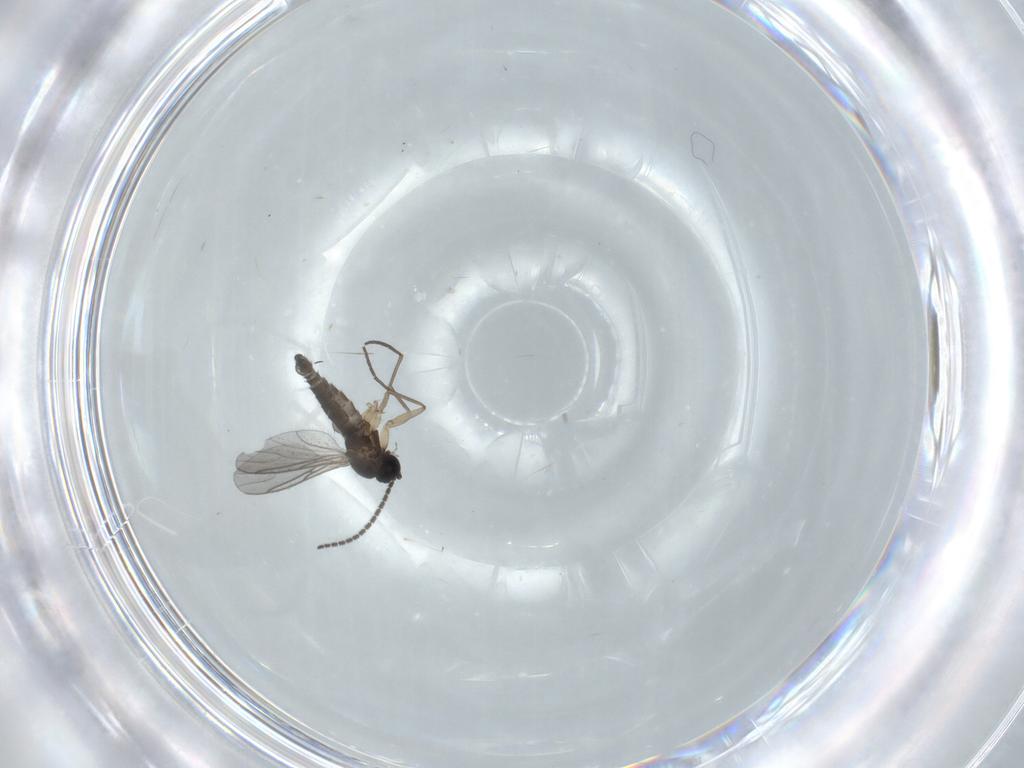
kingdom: Animalia
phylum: Arthropoda
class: Insecta
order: Diptera
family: Sciaridae
